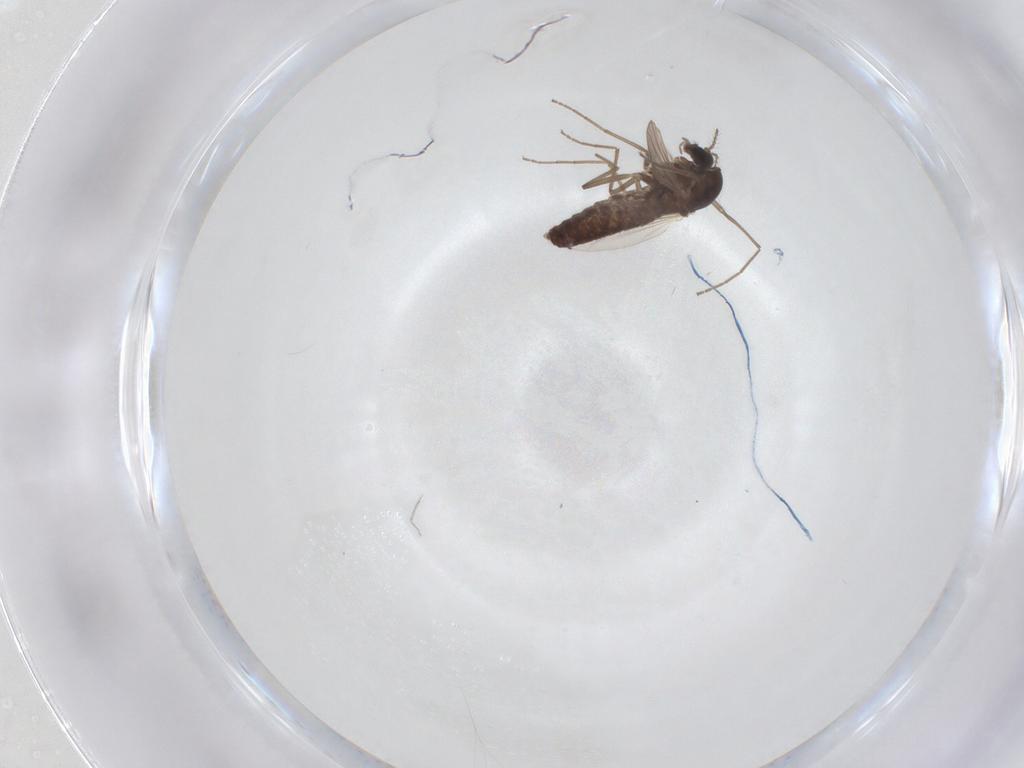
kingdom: Animalia
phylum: Arthropoda
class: Insecta
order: Diptera
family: Chironomidae
